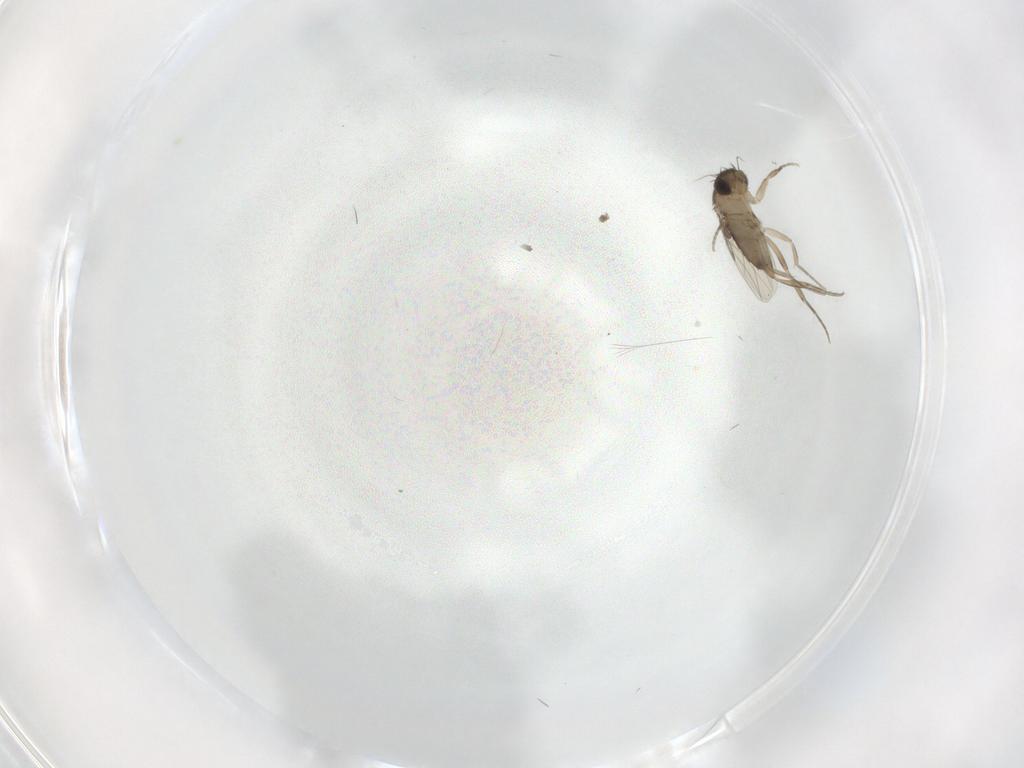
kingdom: Animalia
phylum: Arthropoda
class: Insecta
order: Diptera
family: Phoridae
